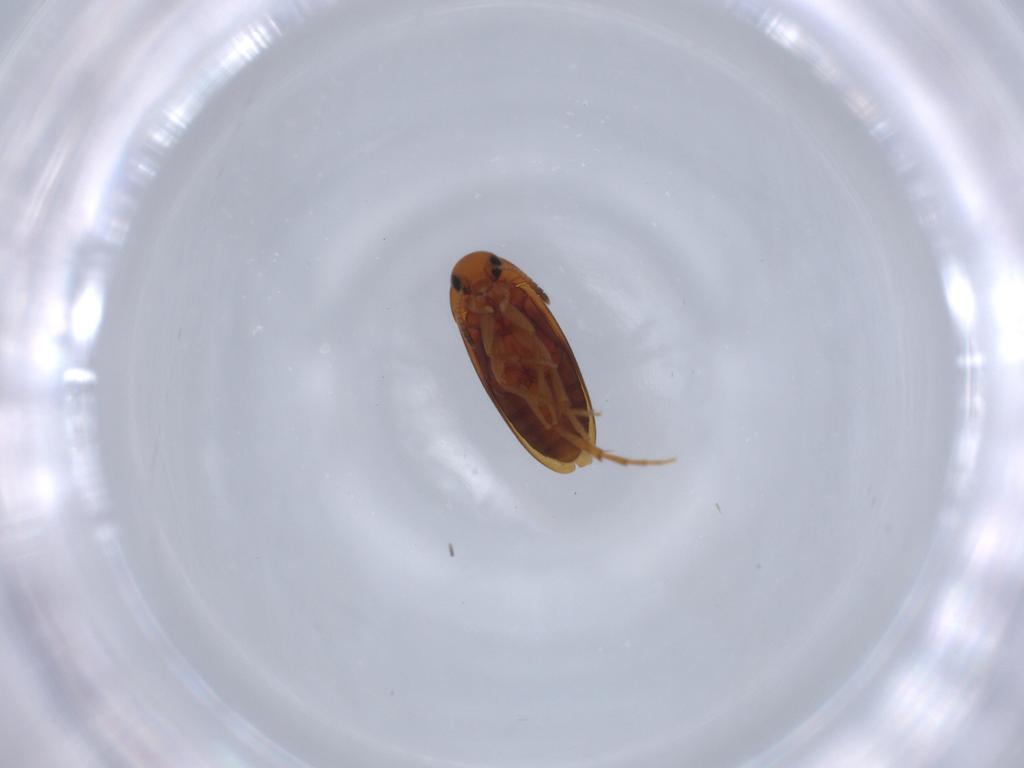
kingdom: Animalia
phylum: Arthropoda
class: Insecta
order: Coleoptera
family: Scraptiidae
